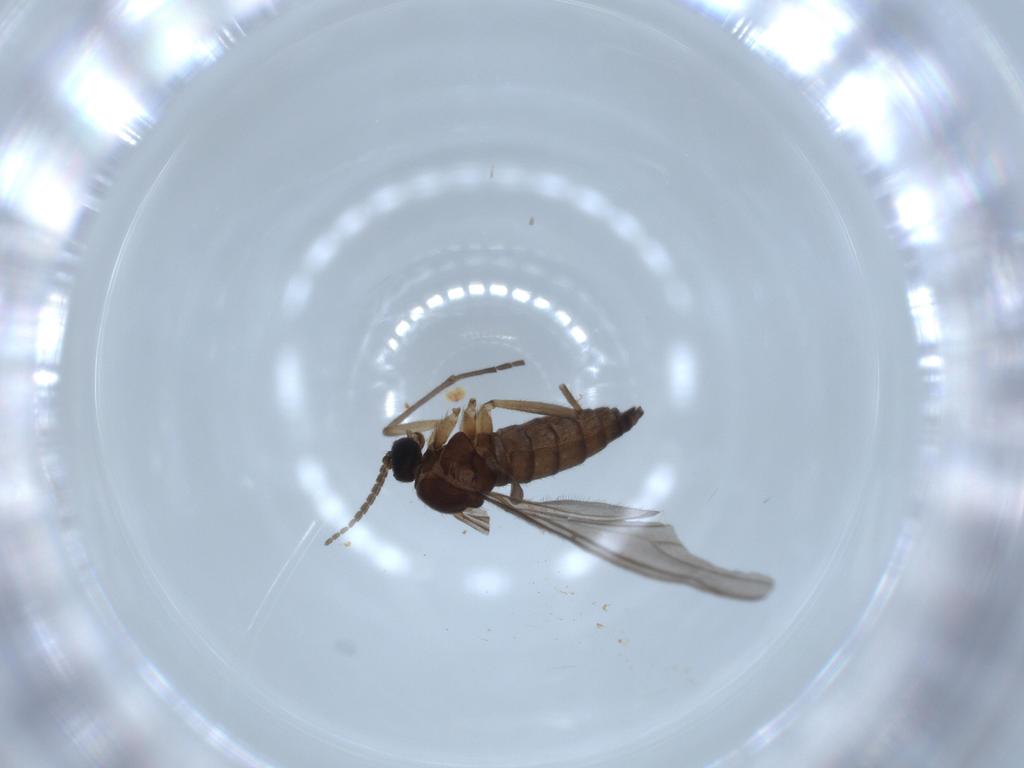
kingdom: Animalia
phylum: Arthropoda
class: Insecta
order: Diptera
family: Sciaridae
